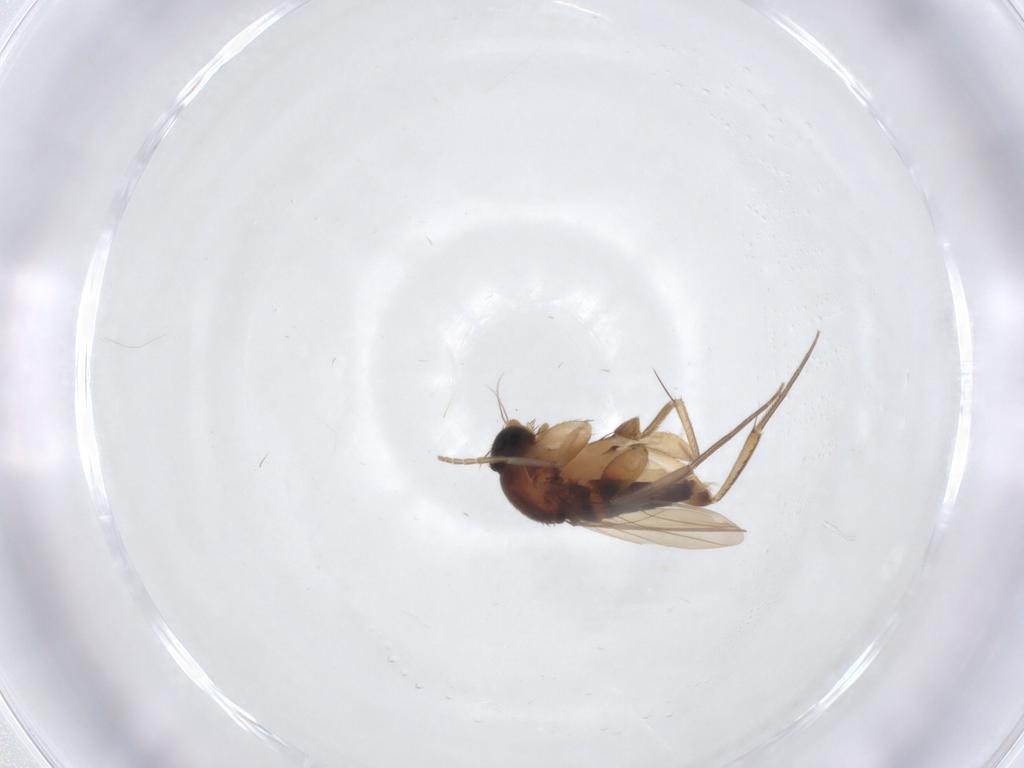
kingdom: Animalia
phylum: Arthropoda
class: Insecta
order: Diptera
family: Phoridae
